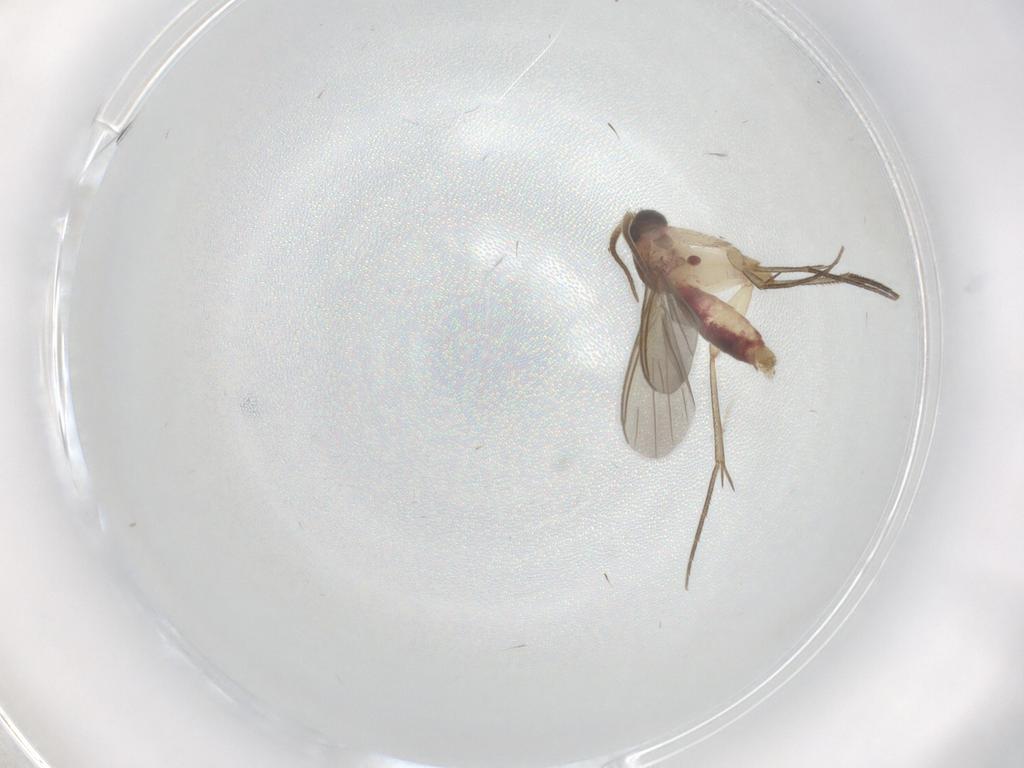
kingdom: Animalia
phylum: Arthropoda
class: Insecta
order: Diptera
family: Mycetophilidae
